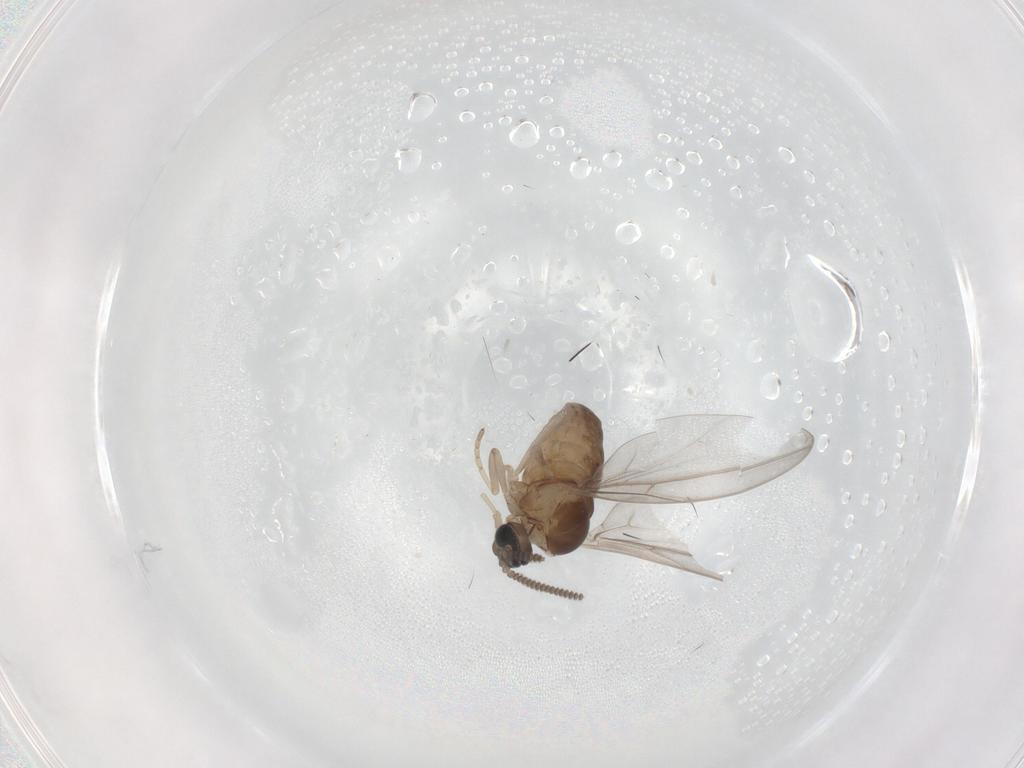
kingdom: Animalia
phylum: Arthropoda
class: Insecta
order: Diptera
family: Cecidomyiidae
